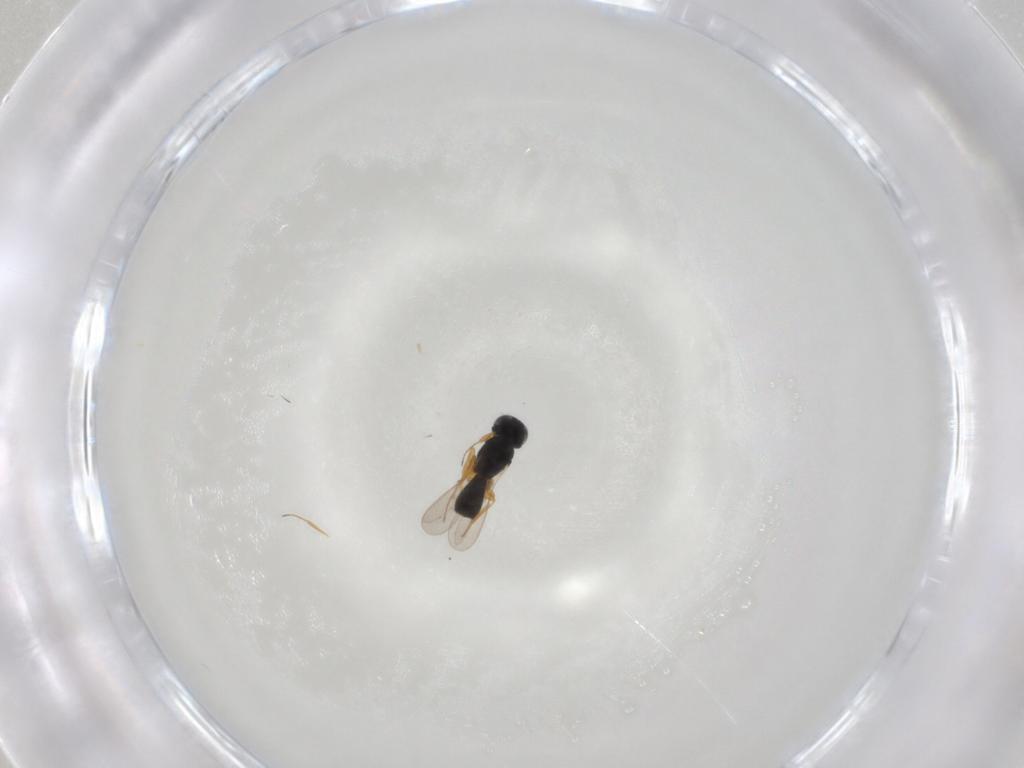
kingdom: Animalia
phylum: Arthropoda
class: Insecta
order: Hymenoptera
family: Scelionidae
